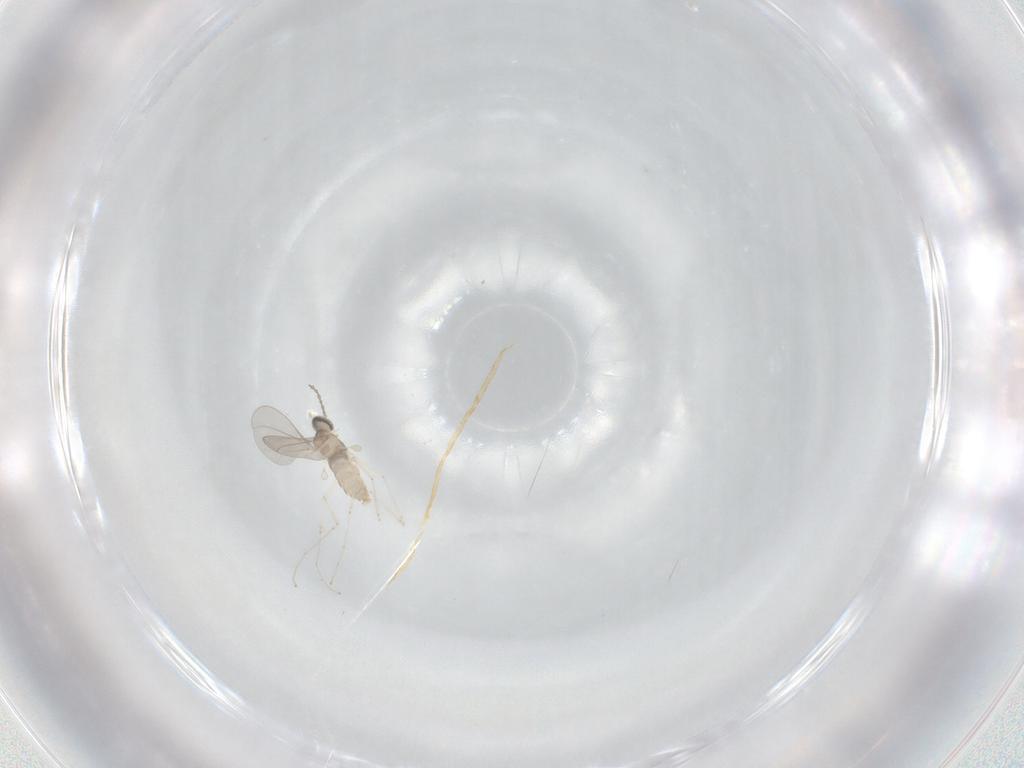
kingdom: Animalia
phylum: Arthropoda
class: Insecta
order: Diptera
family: Cecidomyiidae
